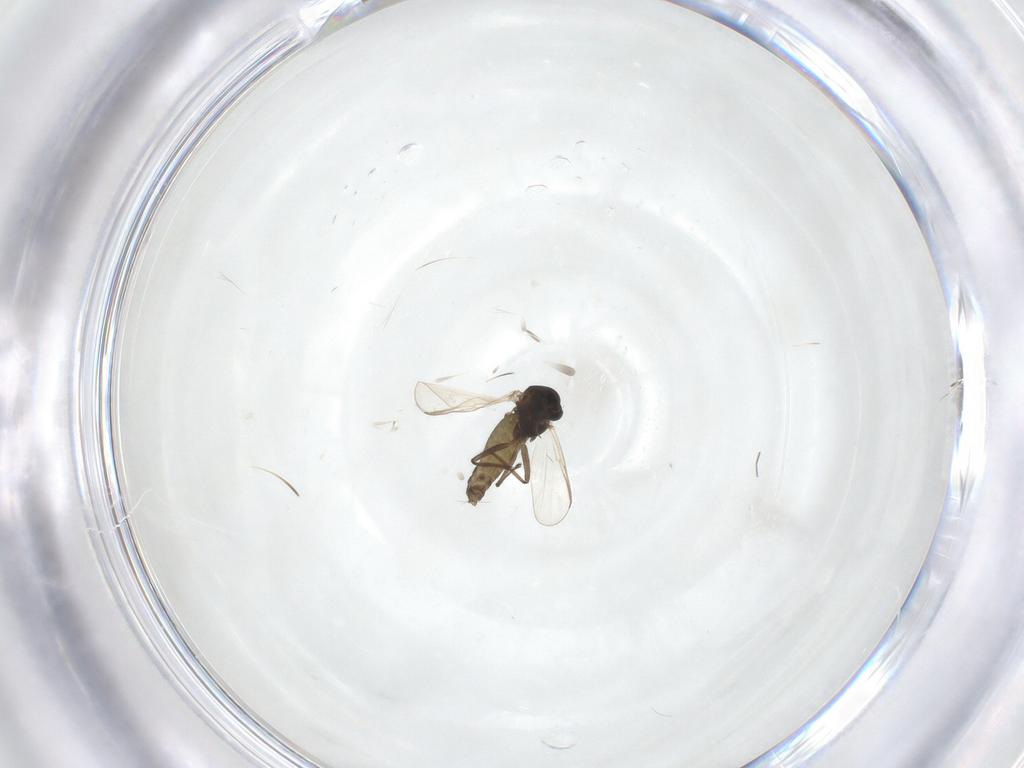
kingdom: Animalia
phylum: Arthropoda
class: Insecta
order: Diptera
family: Chironomidae
